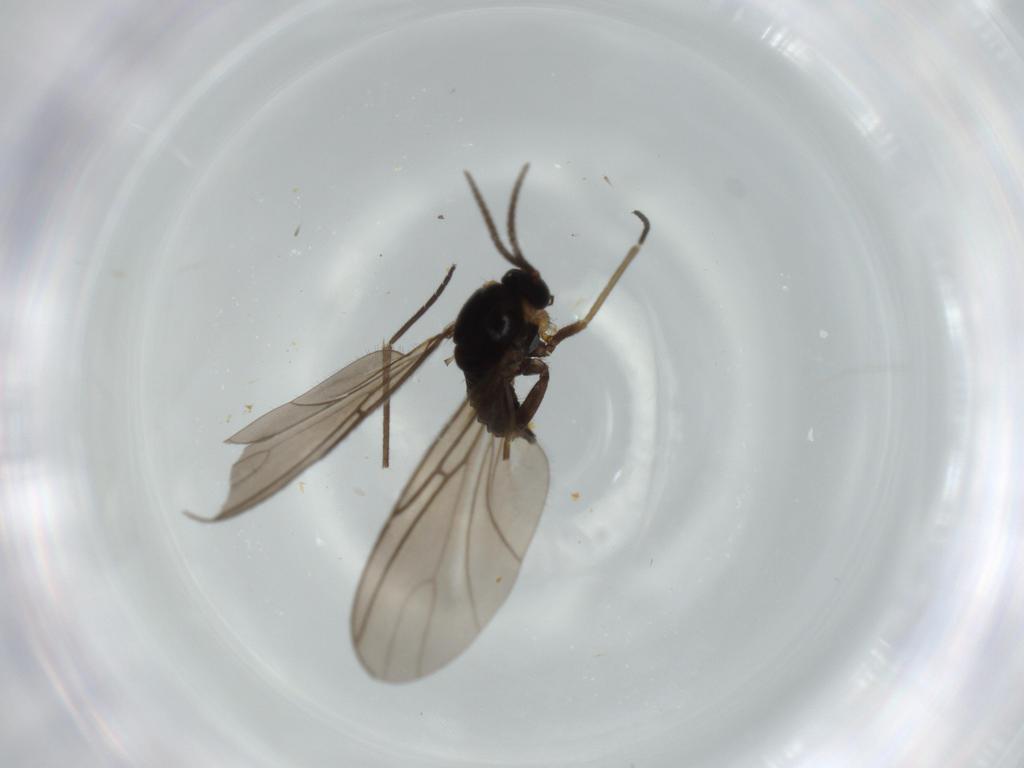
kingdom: Animalia
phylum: Arthropoda
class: Insecta
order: Diptera
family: Sciaridae
